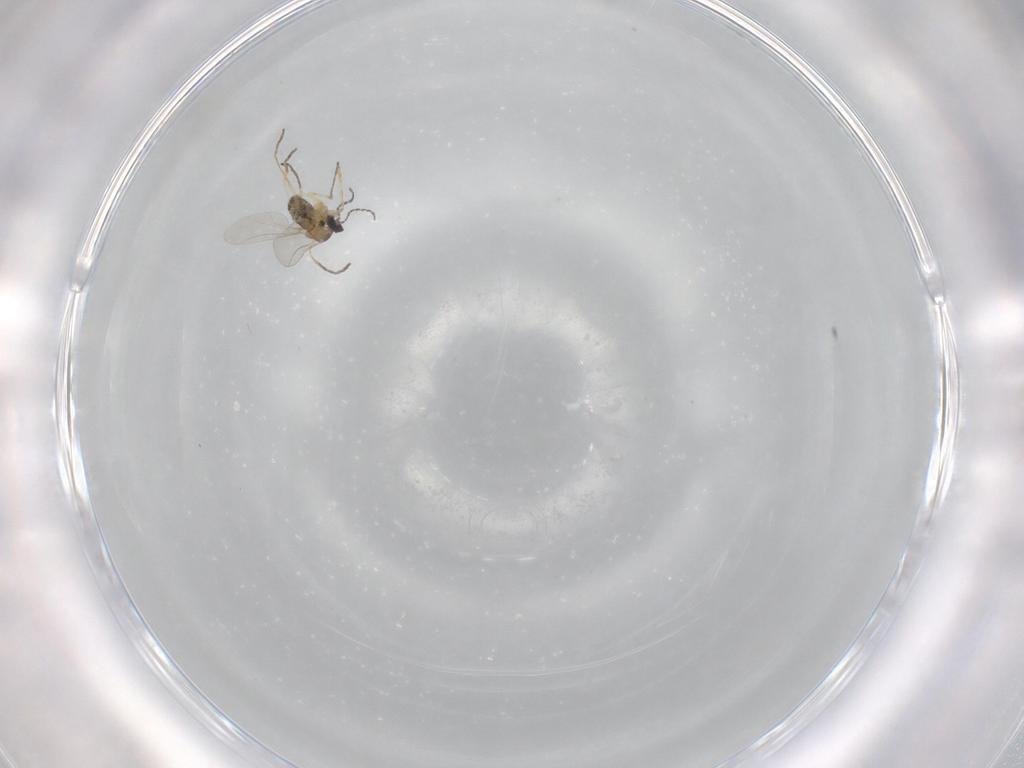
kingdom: Animalia
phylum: Arthropoda
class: Insecta
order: Diptera
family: Cecidomyiidae
